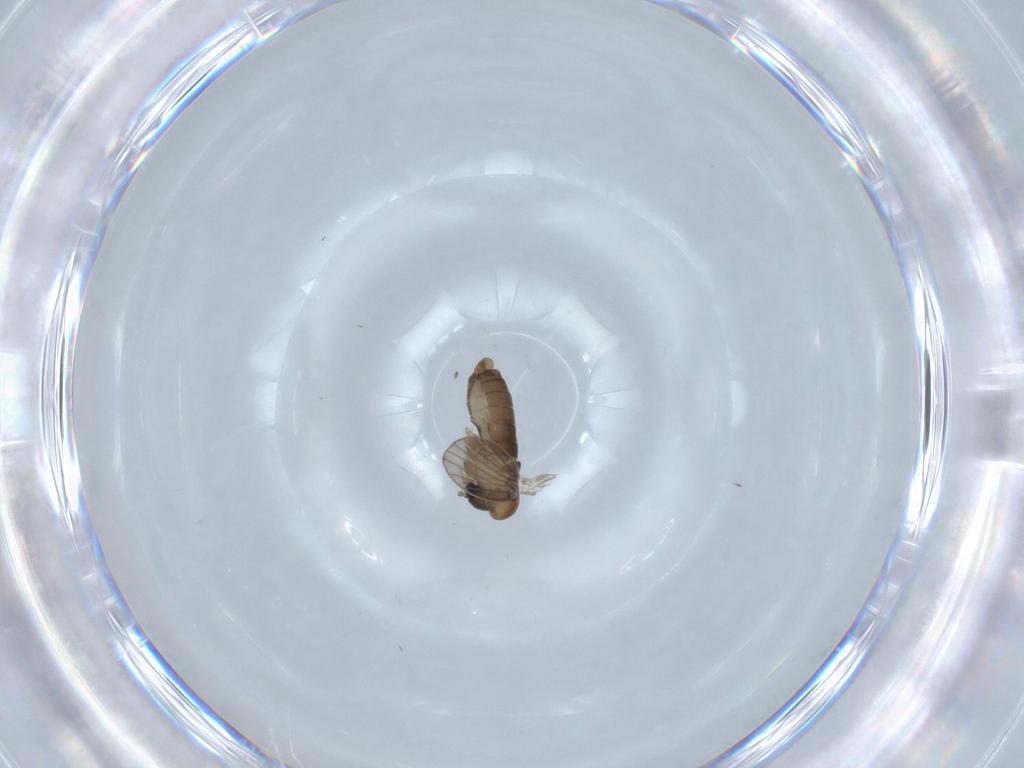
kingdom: Animalia
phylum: Arthropoda
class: Insecta
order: Diptera
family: Psychodidae
